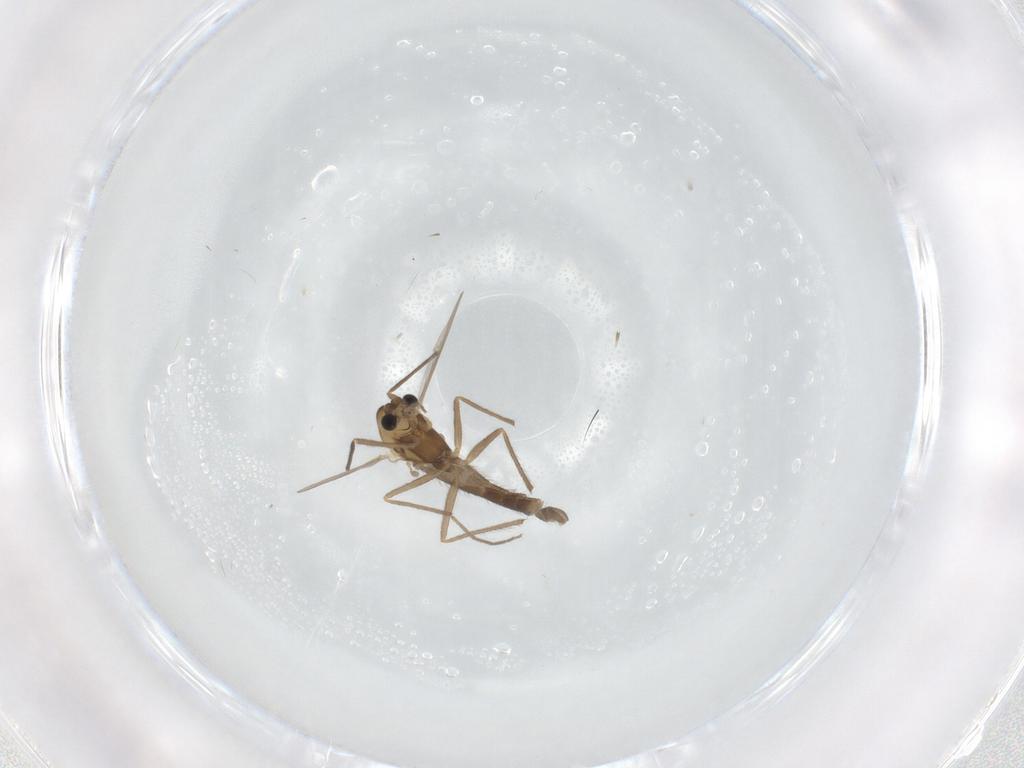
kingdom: Animalia
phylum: Arthropoda
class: Insecta
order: Diptera
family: Chironomidae
